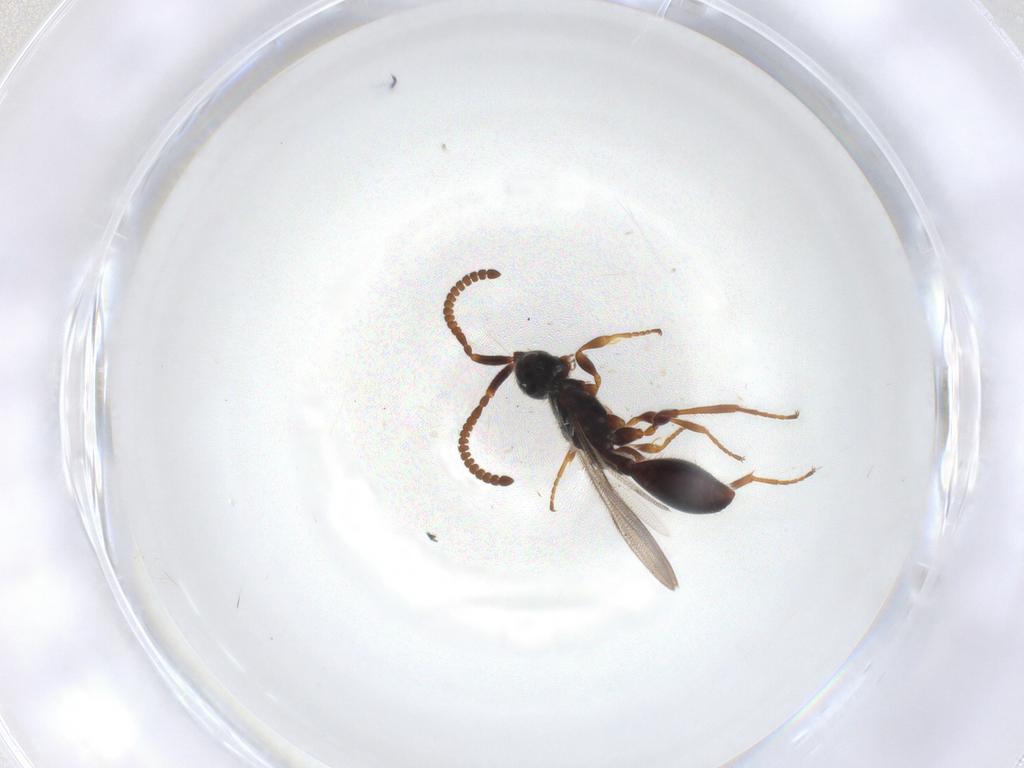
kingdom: Animalia
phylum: Arthropoda
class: Insecta
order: Hymenoptera
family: Diapriidae
